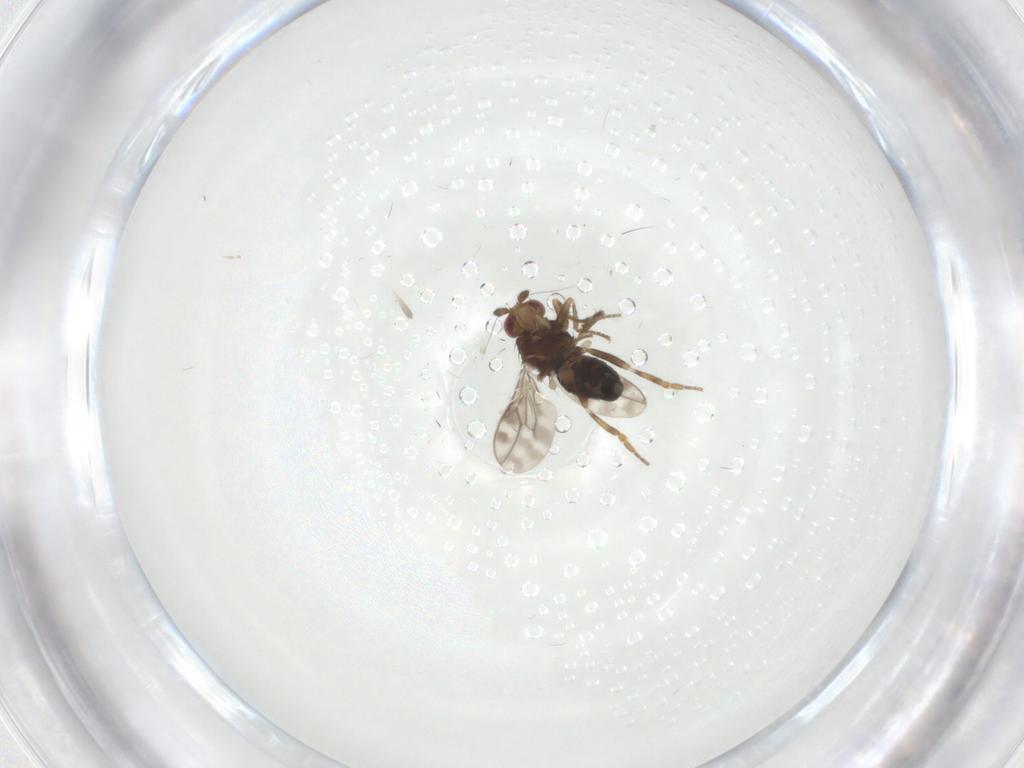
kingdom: Animalia
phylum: Arthropoda
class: Insecta
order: Diptera
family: Sphaeroceridae
